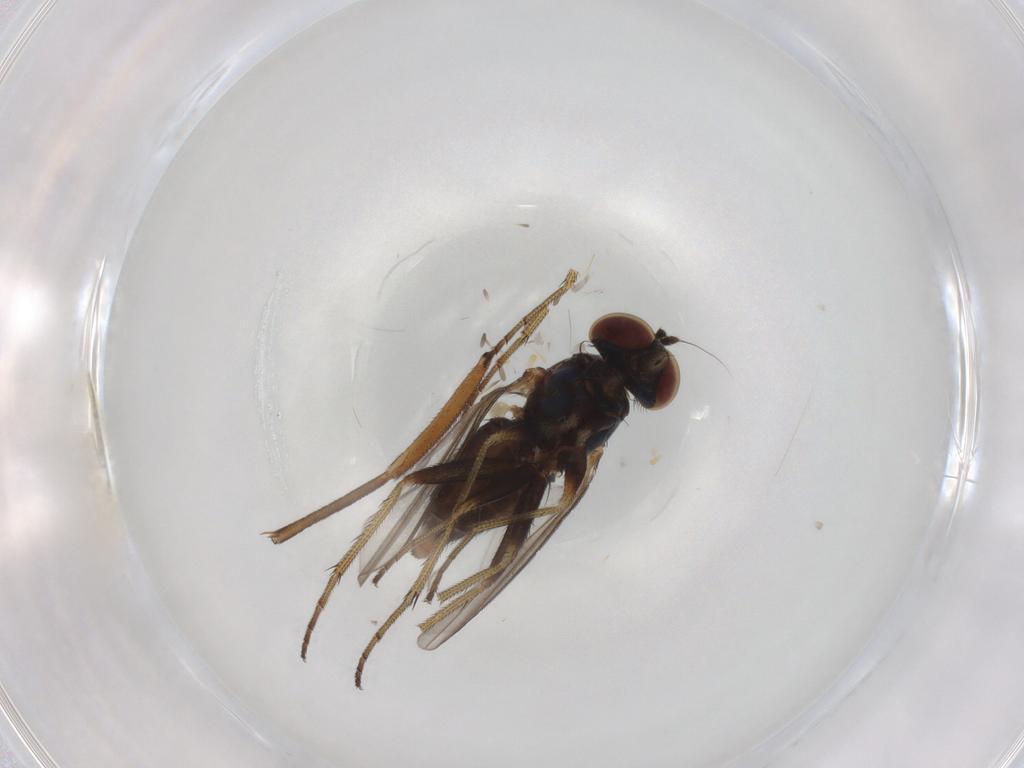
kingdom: Animalia
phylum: Arthropoda
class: Insecta
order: Diptera
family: Dolichopodidae
